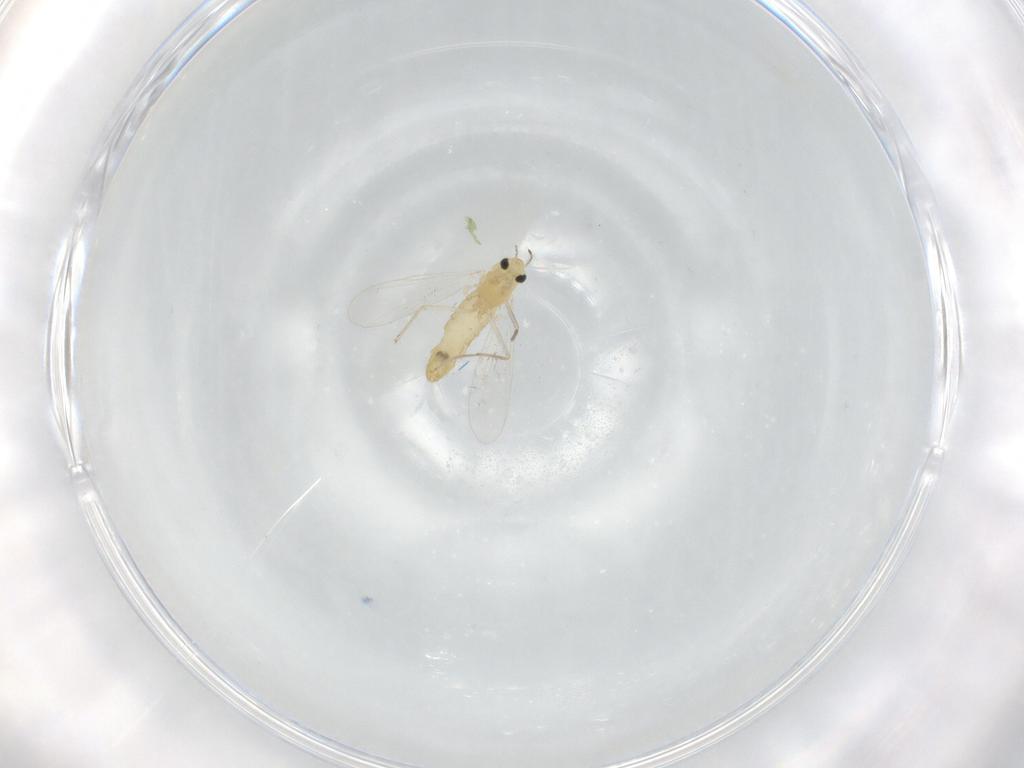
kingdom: Animalia
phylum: Arthropoda
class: Insecta
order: Diptera
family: Chironomidae
